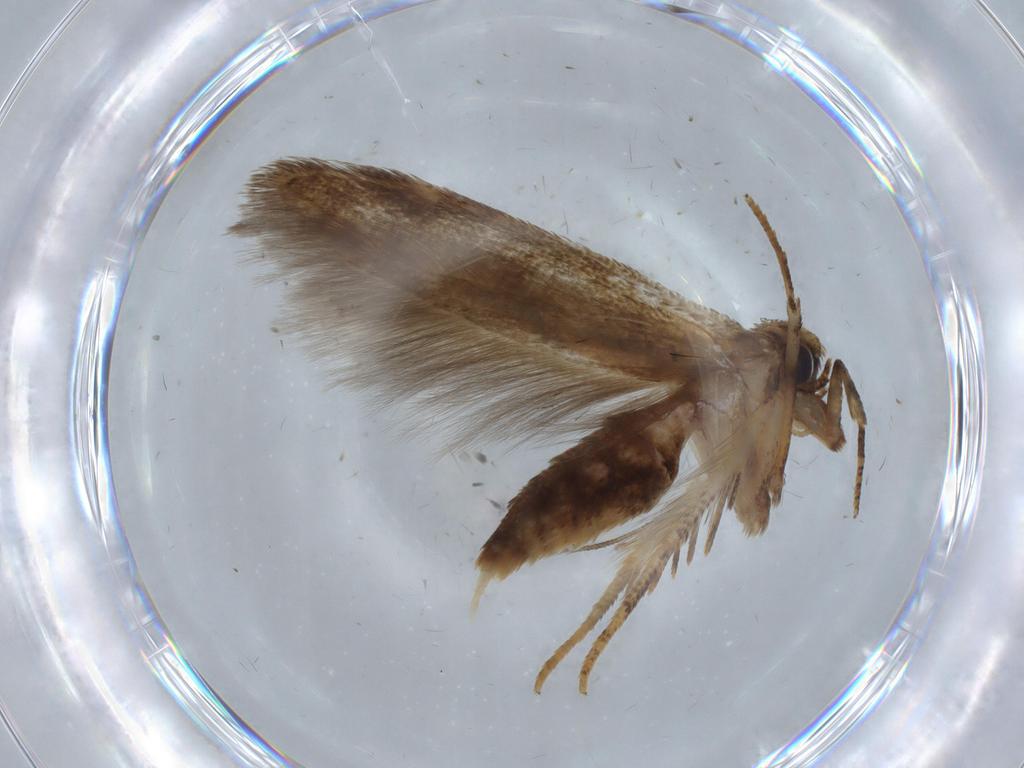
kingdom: Animalia
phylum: Arthropoda
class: Insecta
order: Lepidoptera
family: Blastobasidae
